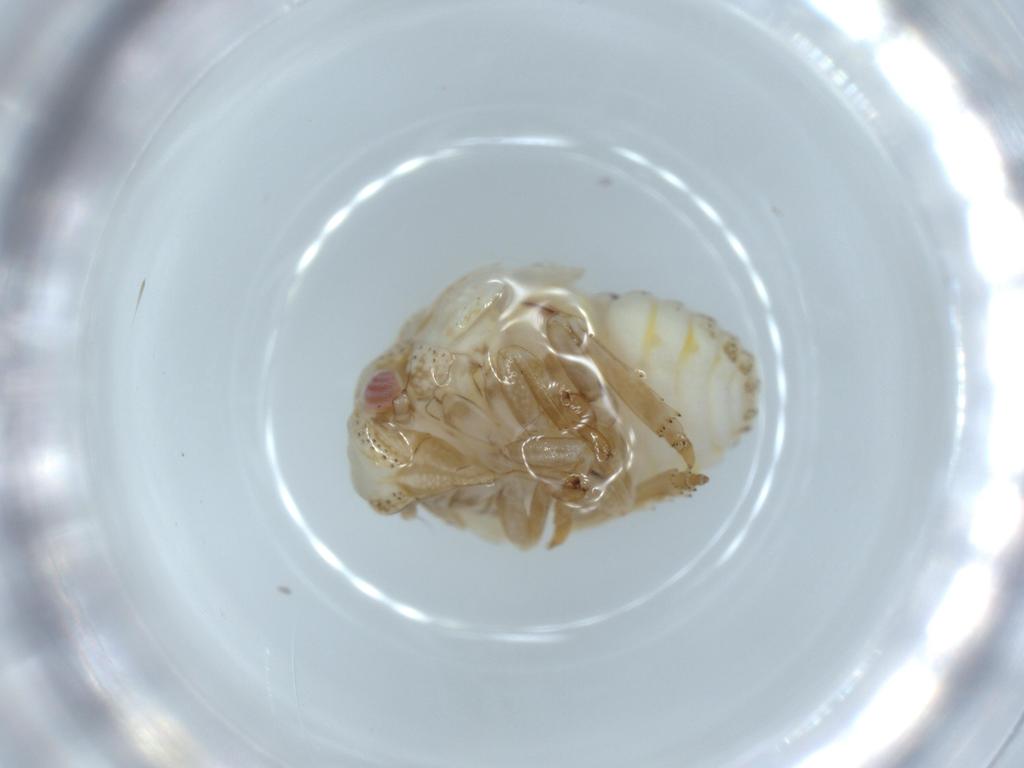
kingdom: Animalia
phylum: Arthropoda
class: Insecta
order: Hemiptera
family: Acanaloniidae
